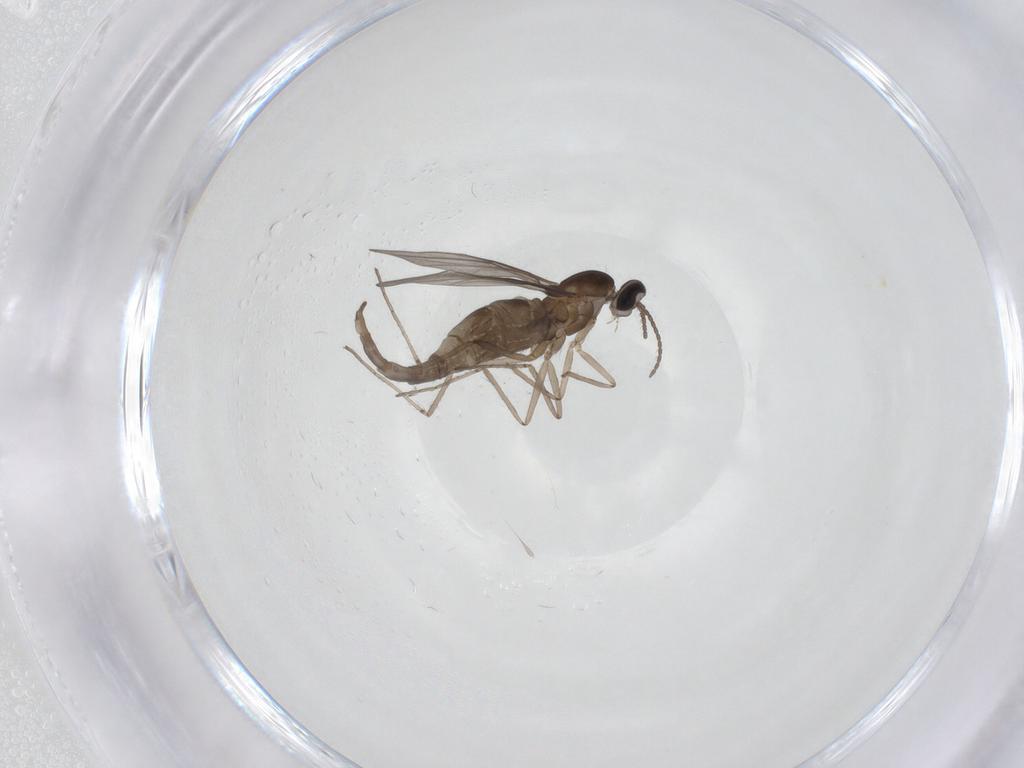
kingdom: Animalia
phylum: Arthropoda
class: Insecta
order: Diptera
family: Cecidomyiidae
